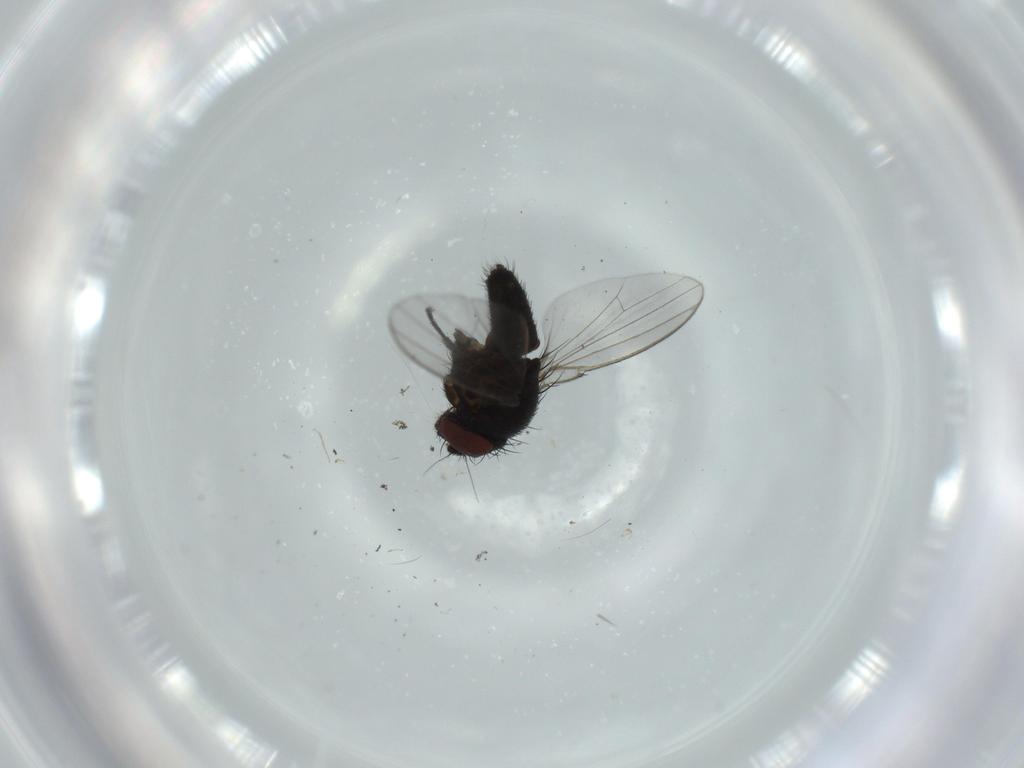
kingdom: Animalia
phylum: Arthropoda
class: Insecta
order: Diptera
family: Milichiidae
